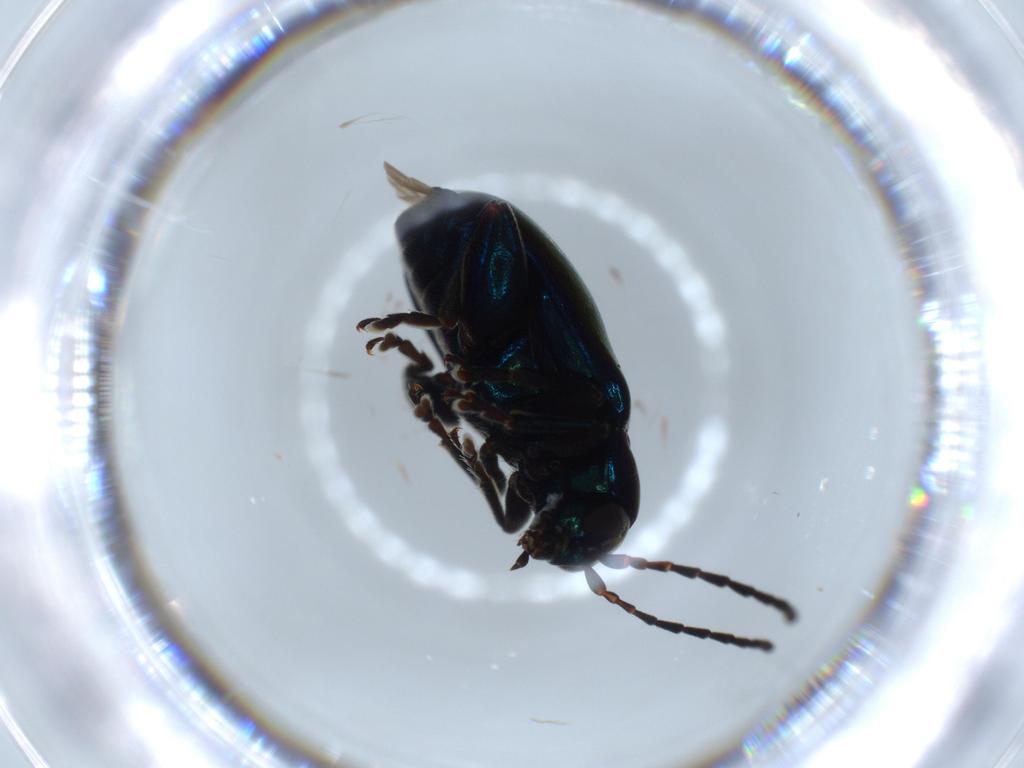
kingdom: Animalia
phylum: Arthropoda
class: Insecta
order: Coleoptera
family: Chrysomelidae
